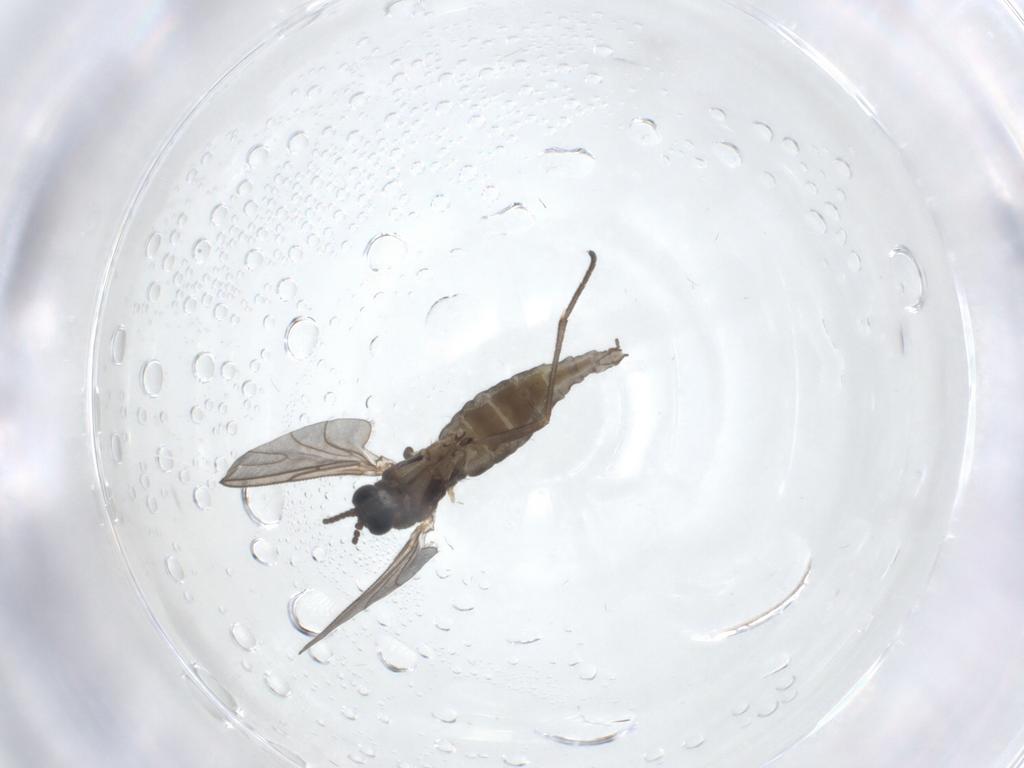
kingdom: Animalia
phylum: Arthropoda
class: Insecta
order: Diptera
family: Sciaridae
